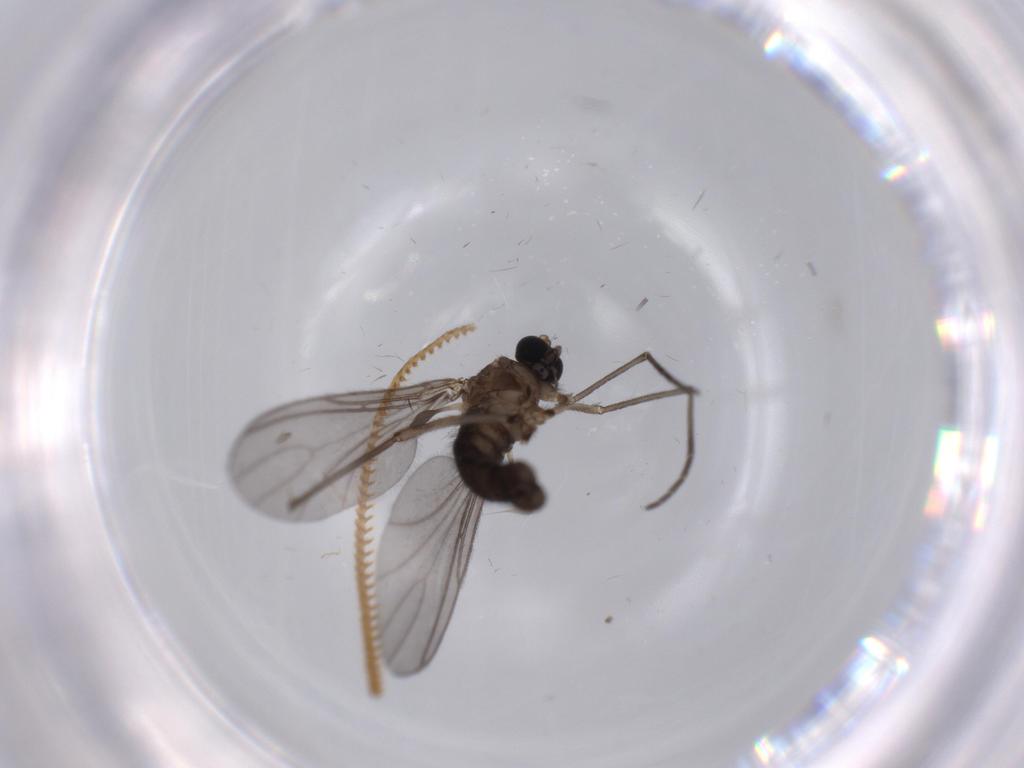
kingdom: Animalia
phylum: Arthropoda
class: Insecta
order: Diptera
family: Sciaridae
